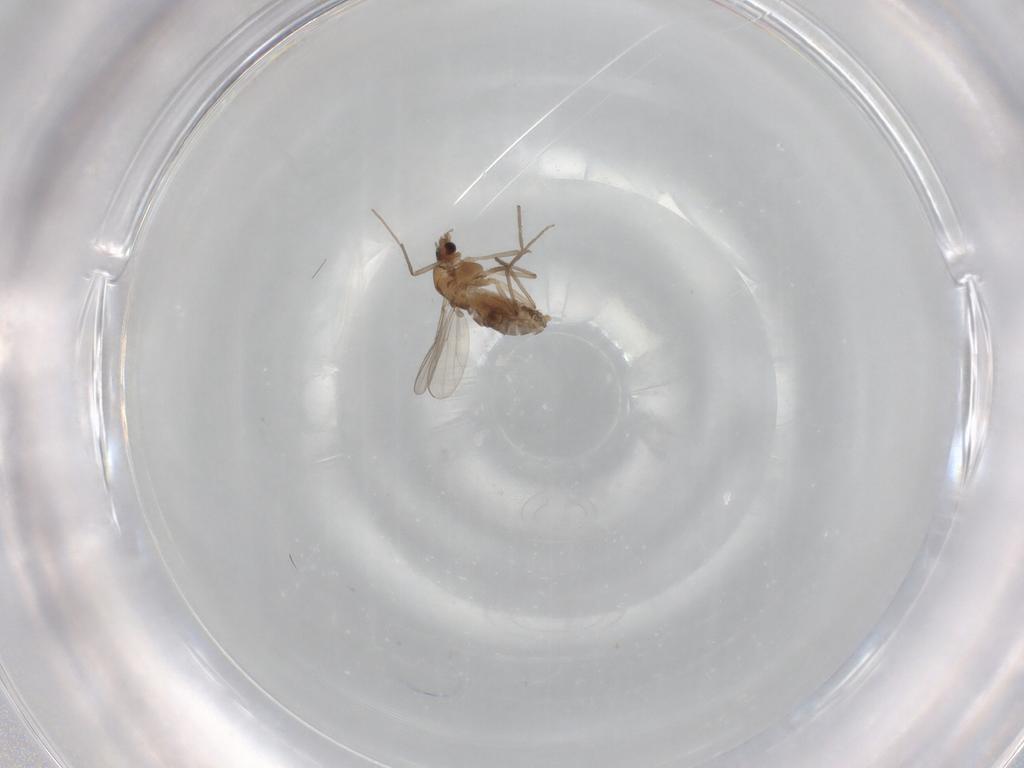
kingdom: Animalia
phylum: Arthropoda
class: Insecta
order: Diptera
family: Chironomidae
